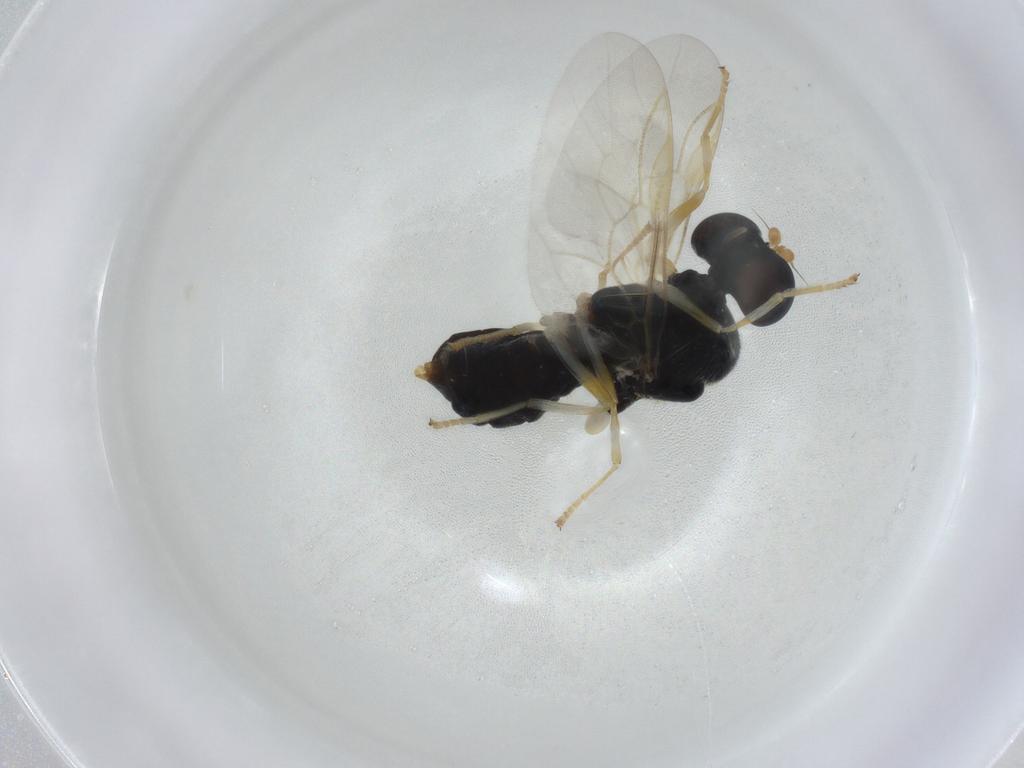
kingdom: Animalia
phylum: Arthropoda
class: Insecta
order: Diptera
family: Stratiomyidae
